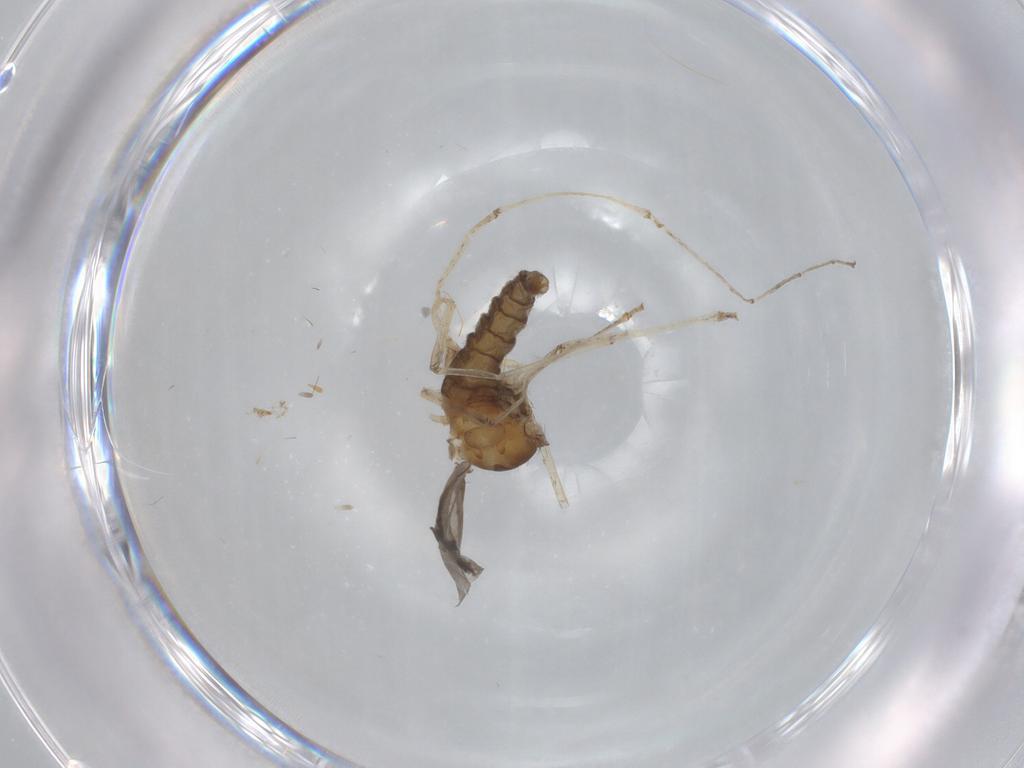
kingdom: Animalia
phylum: Arthropoda
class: Insecta
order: Diptera
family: Cecidomyiidae
